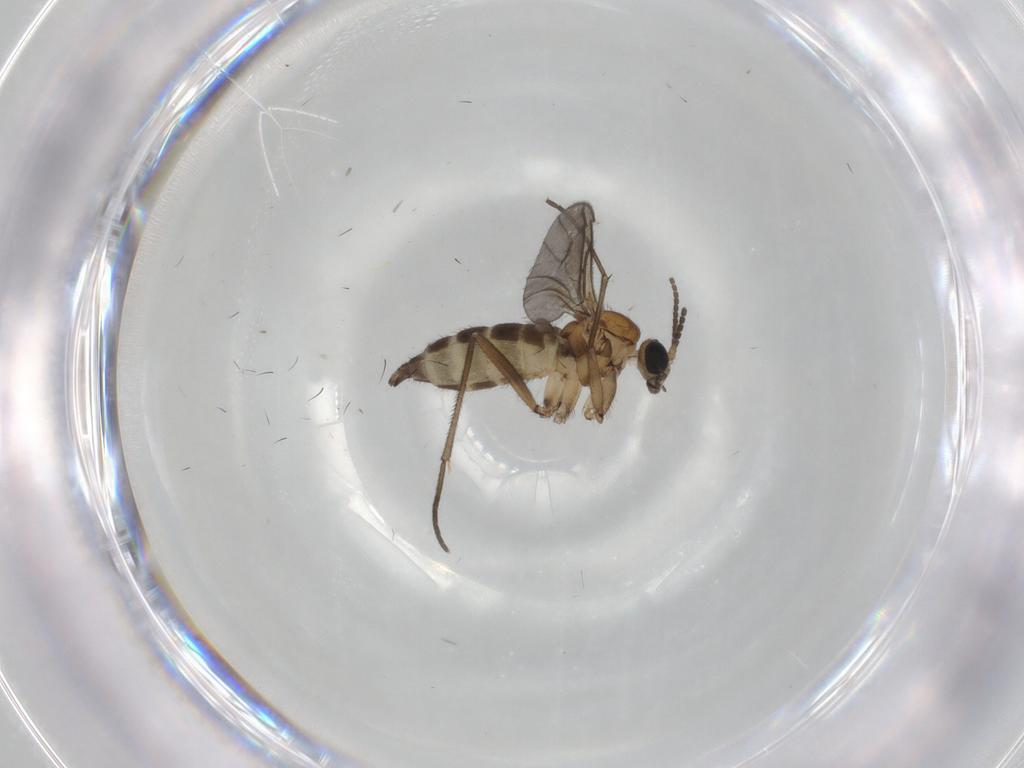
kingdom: Animalia
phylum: Arthropoda
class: Insecta
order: Diptera
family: Sciaridae
